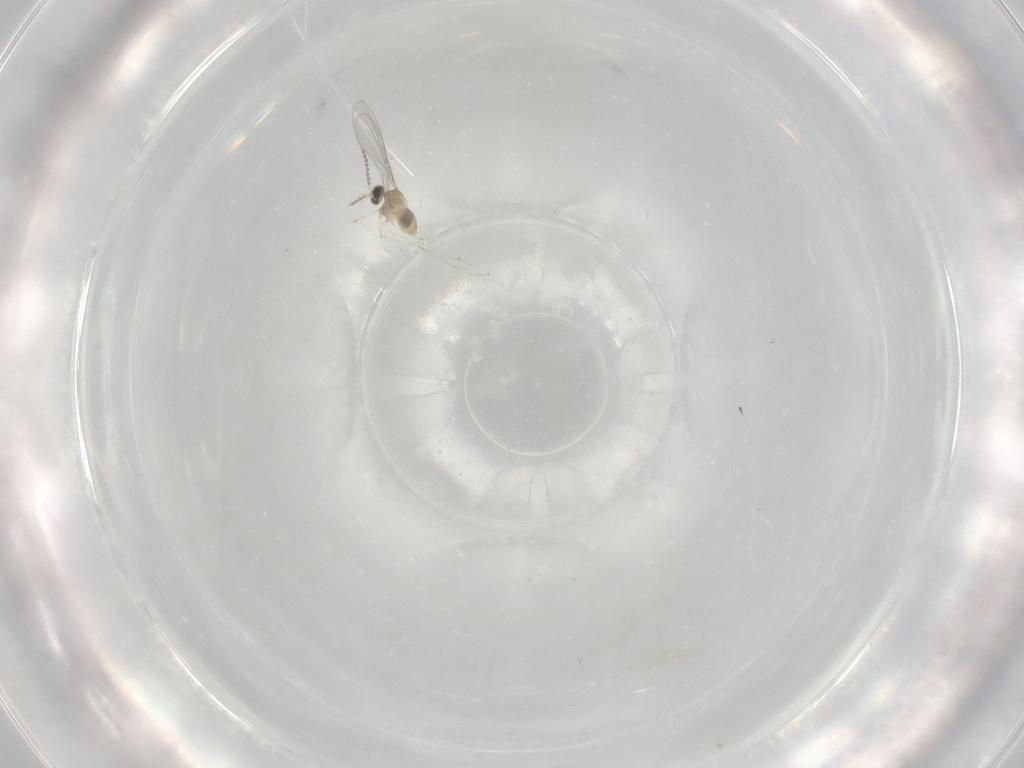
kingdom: Animalia
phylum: Arthropoda
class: Insecta
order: Diptera
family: Cecidomyiidae
